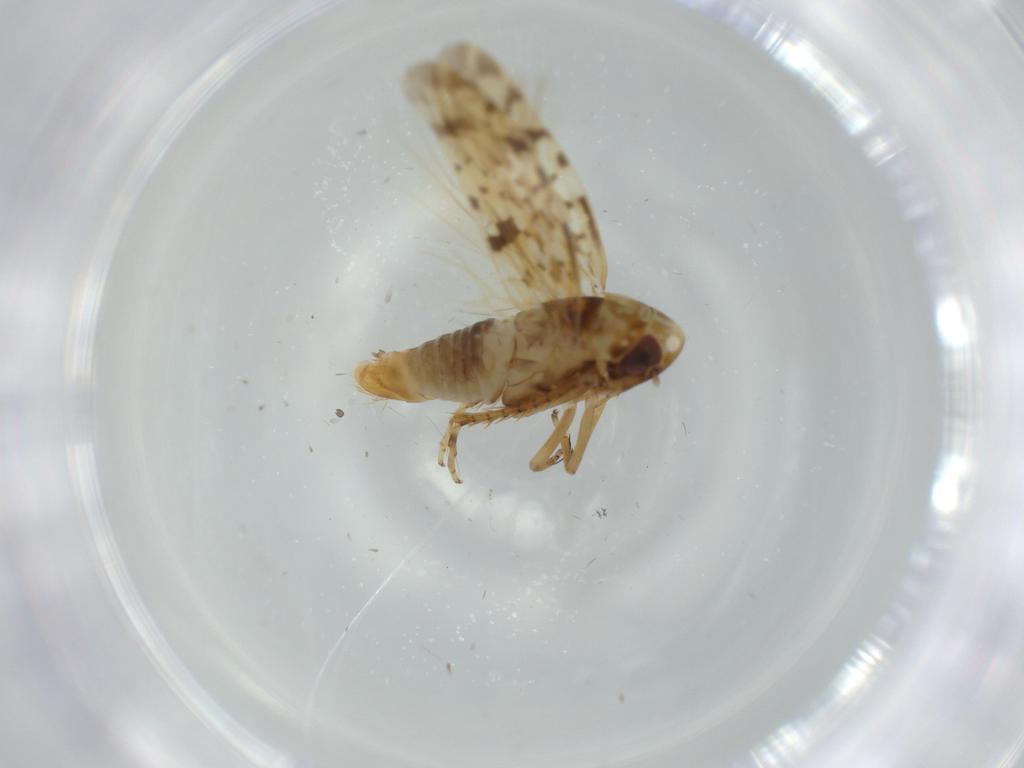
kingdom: Animalia
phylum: Arthropoda
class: Insecta
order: Hemiptera
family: Cicadellidae
